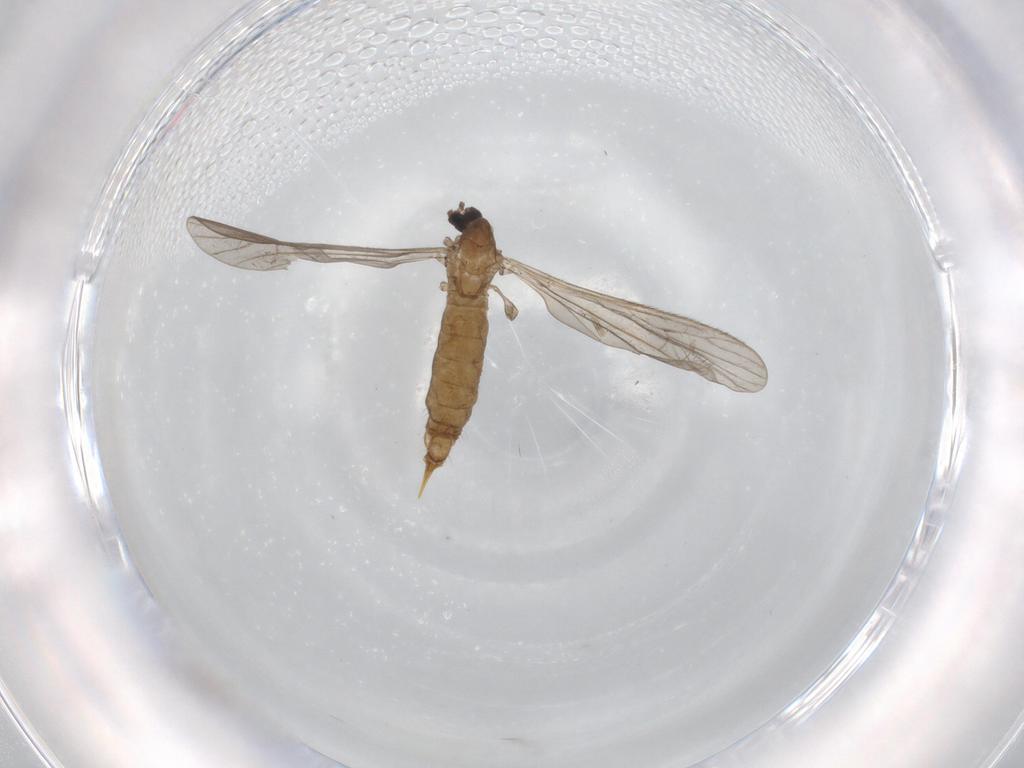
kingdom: Animalia
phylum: Arthropoda
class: Insecta
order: Diptera
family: Limoniidae
